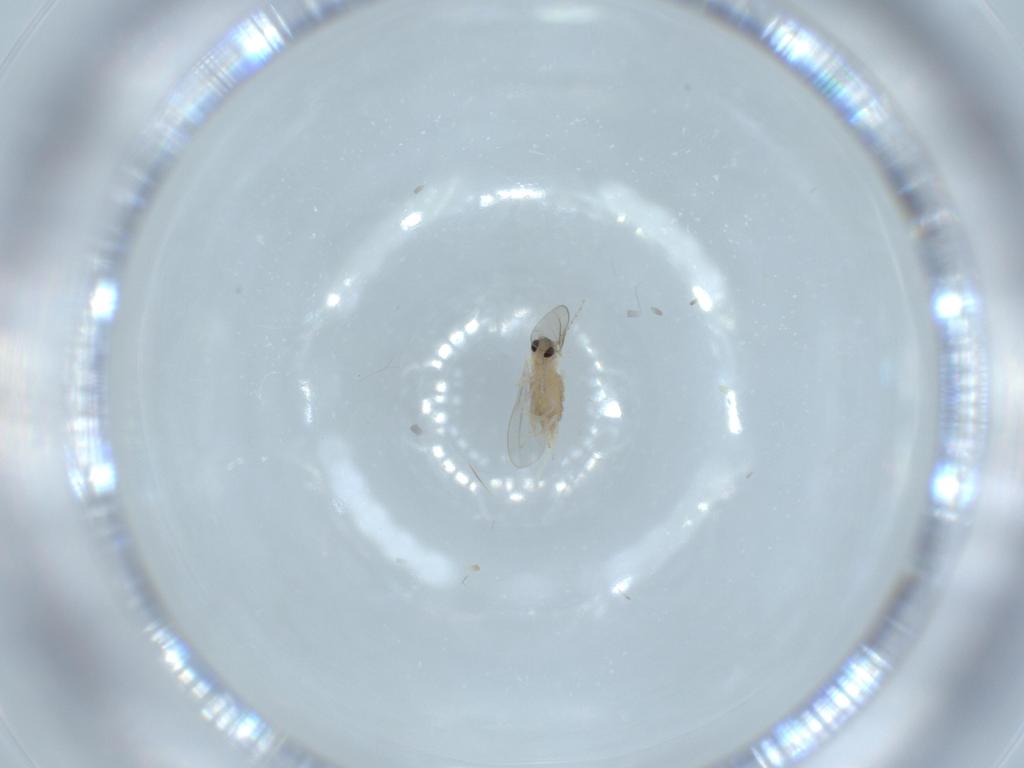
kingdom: Animalia
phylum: Arthropoda
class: Insecta
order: Diptera
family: Cecidomyiidae
